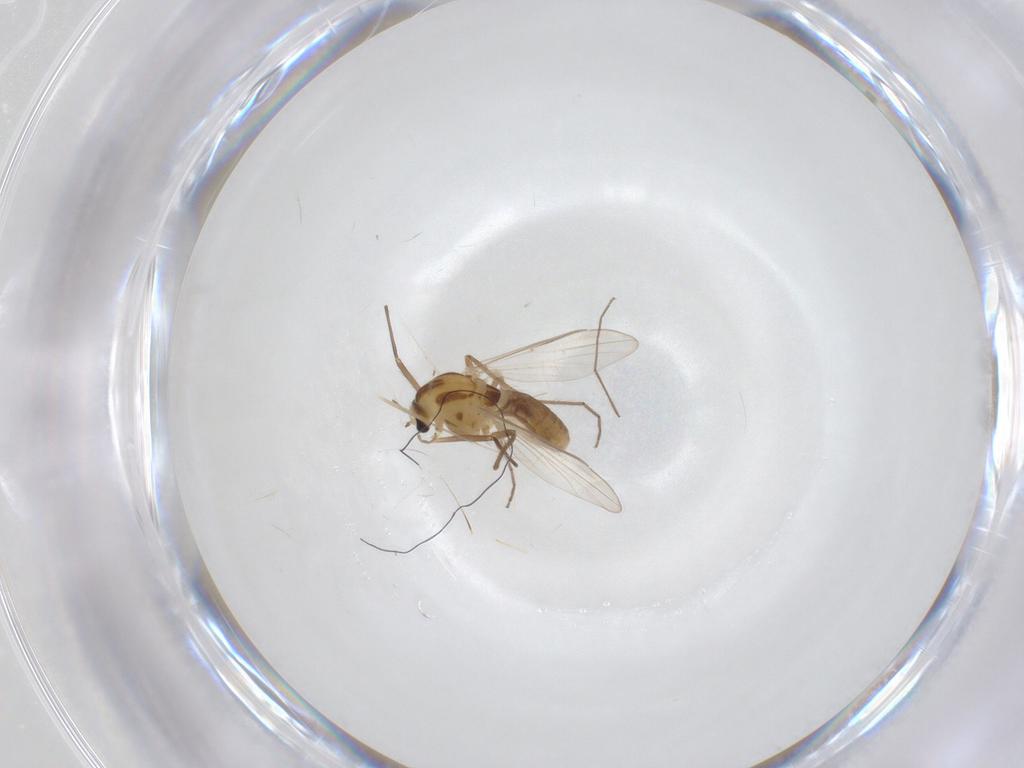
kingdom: Animalia
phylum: Arthropoda
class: Insecta
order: Diptera
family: Chironomidae
